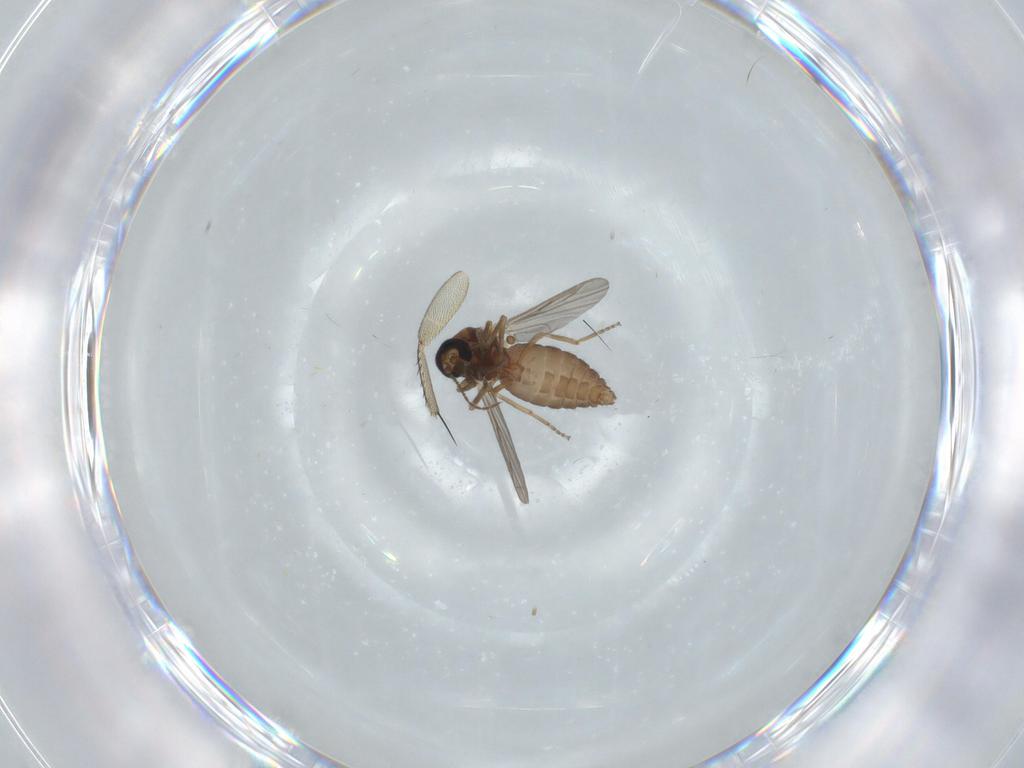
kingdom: Animalia
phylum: Arthropoda
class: Insecta
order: Diptera
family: Ceratopogonidae
